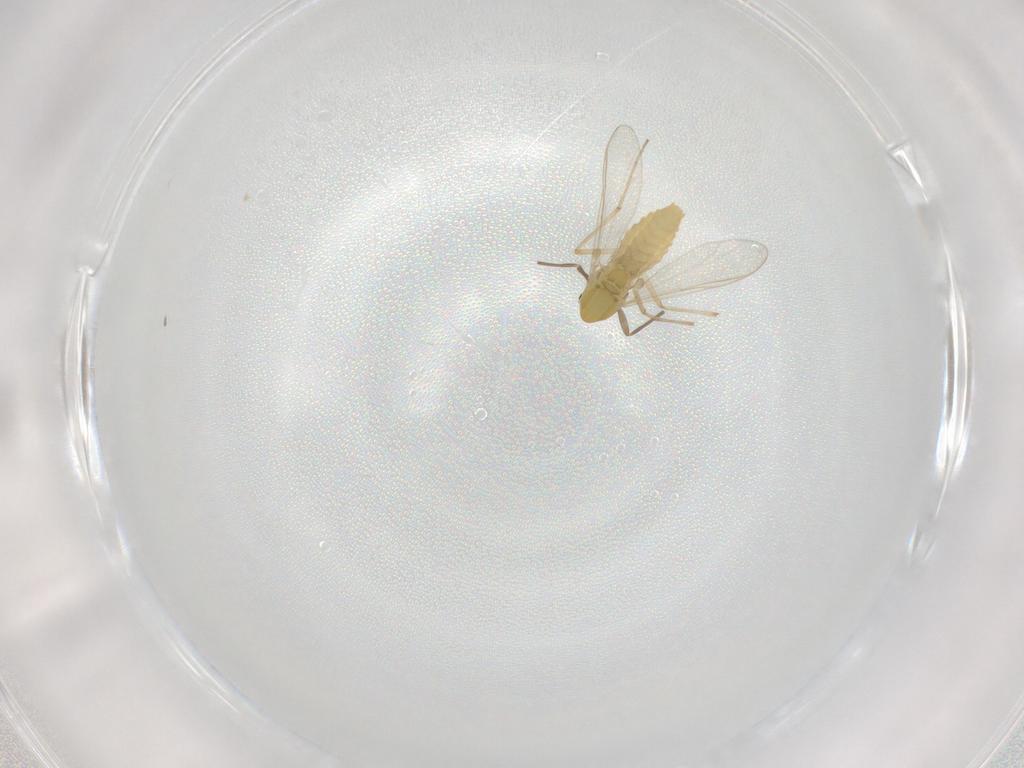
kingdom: Animalia
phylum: Arthropoda
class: Insecta
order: Diptera
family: Chironomidae
